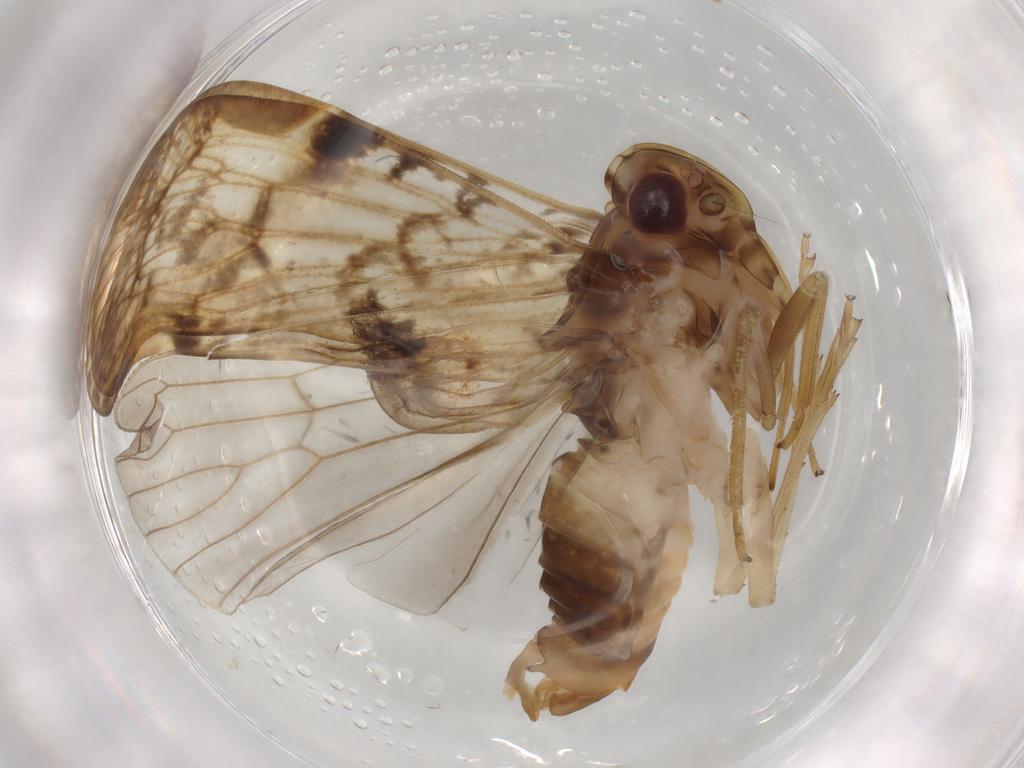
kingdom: Animalia
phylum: Arthropoda
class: Insecta
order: Hemiptera
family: Cixiidae
